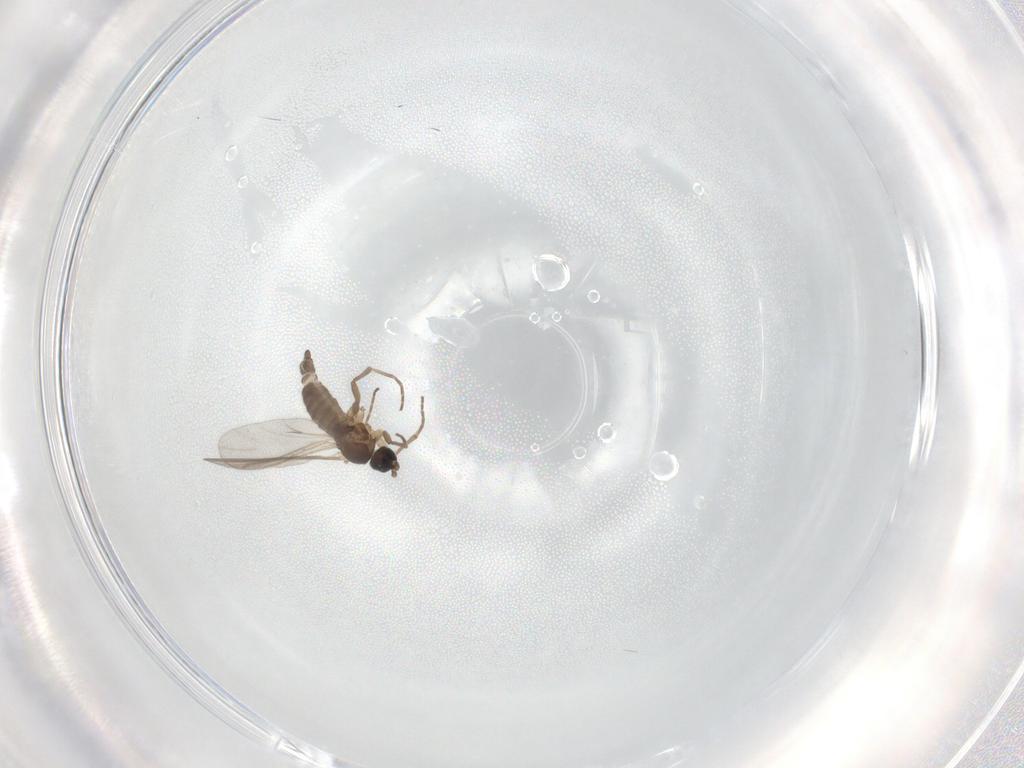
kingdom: Animalia
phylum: Arthropoda
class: Insecta
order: Diptera
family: Sciaridae
